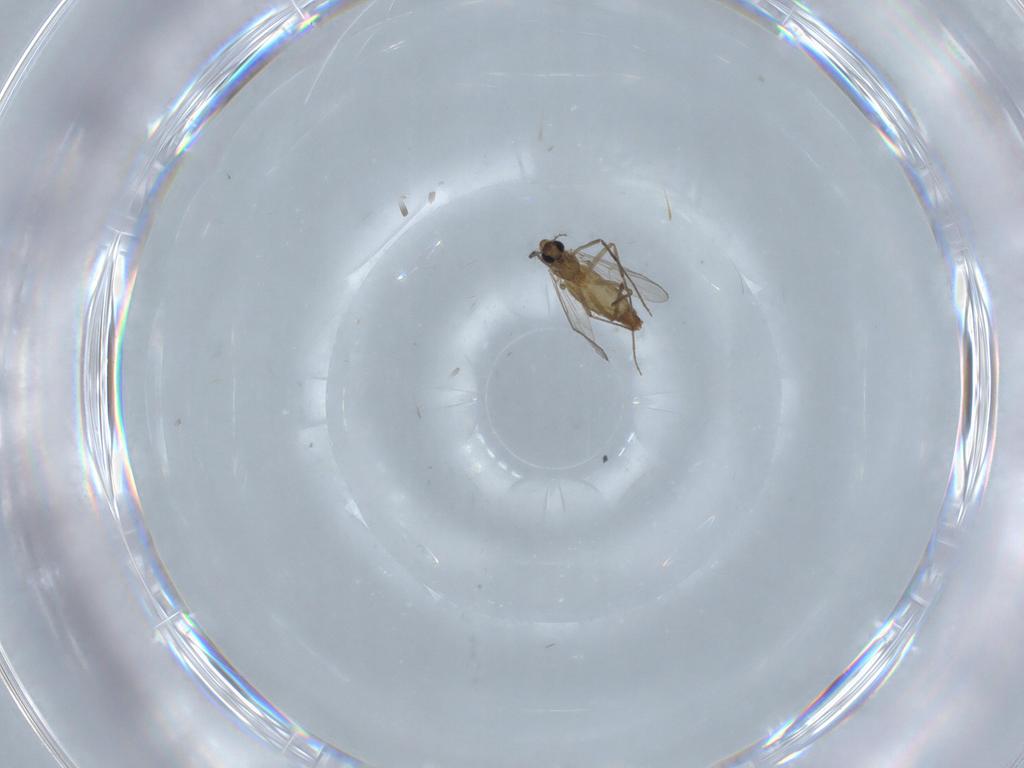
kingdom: Animalia
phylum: Arthropoda
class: Insecta
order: Diptera
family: Chironomidae
